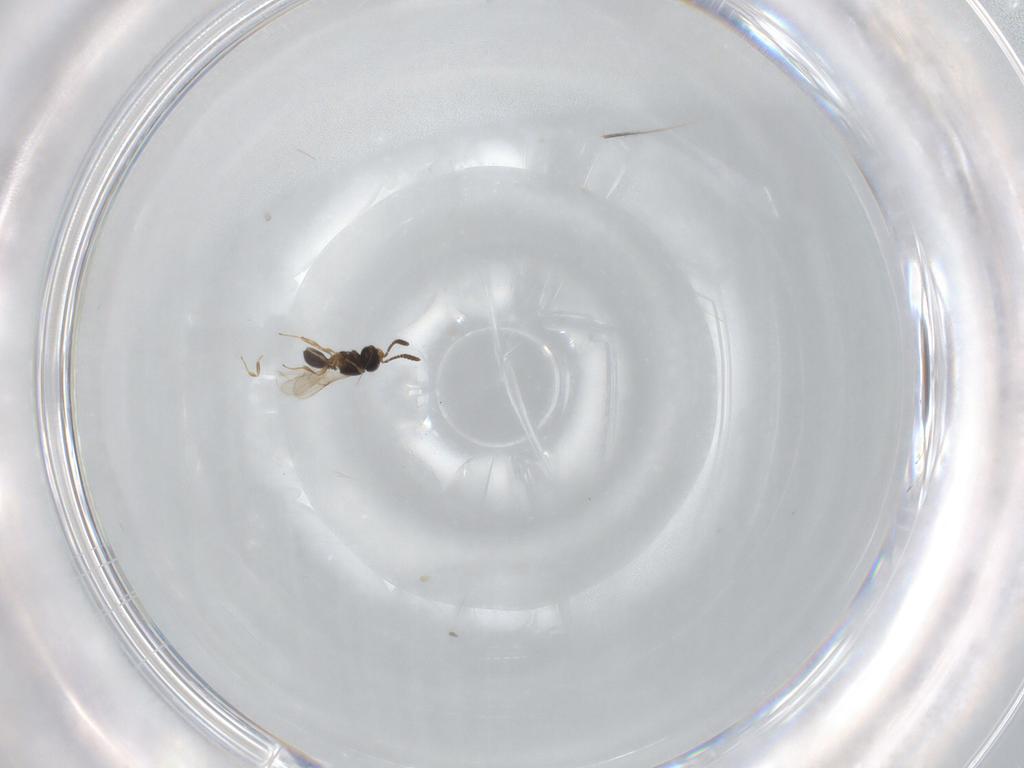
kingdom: Animalia
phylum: Arthropoda
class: Insecta
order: Hymenoptera
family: Scelionidae
